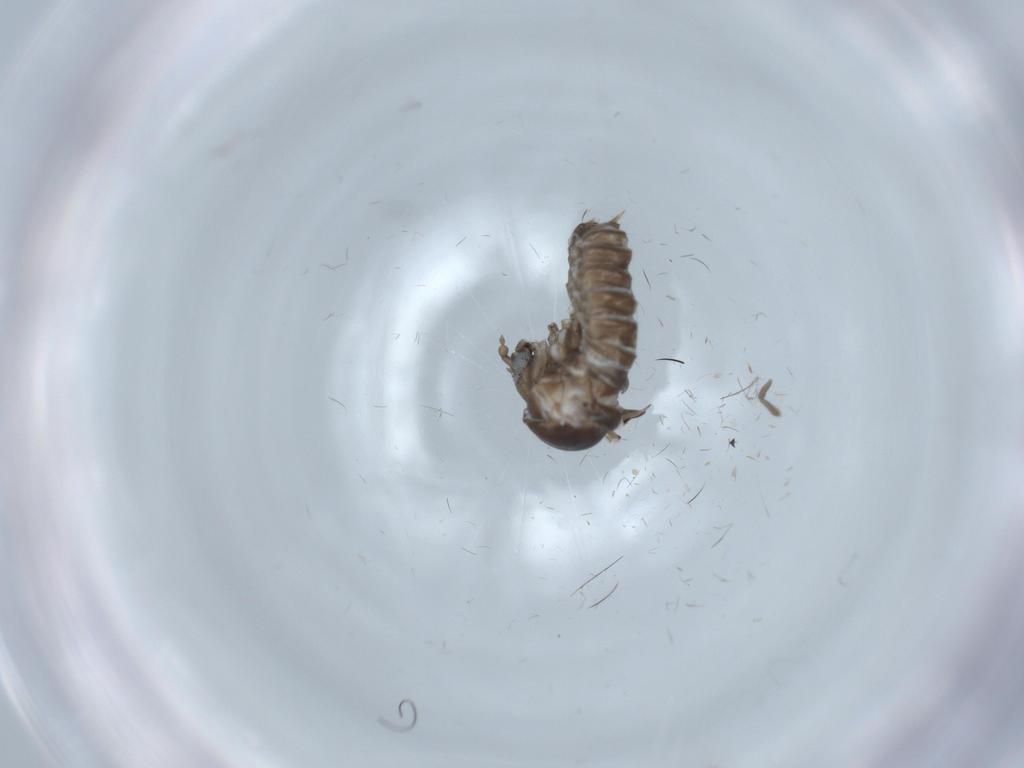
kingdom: Animalia
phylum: Arthropoda
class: Insecta
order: Diptera
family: Psychodidae
